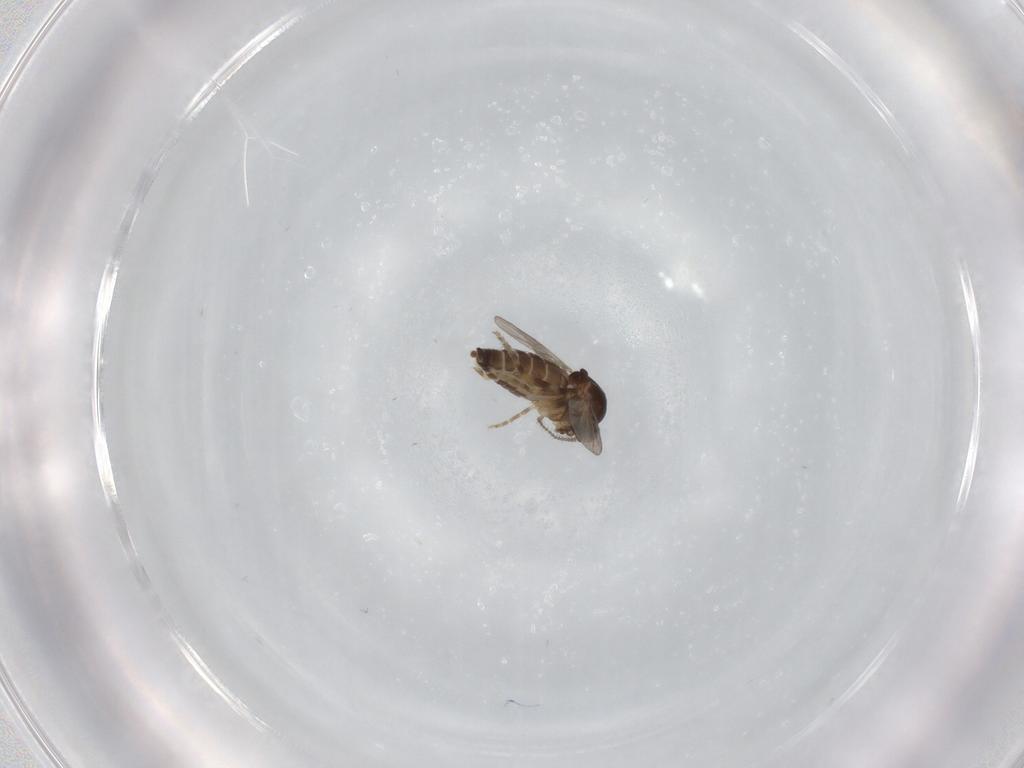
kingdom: Animalia
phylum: Arthropoda
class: Insecta
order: Diptera
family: Ceratopogonidae
